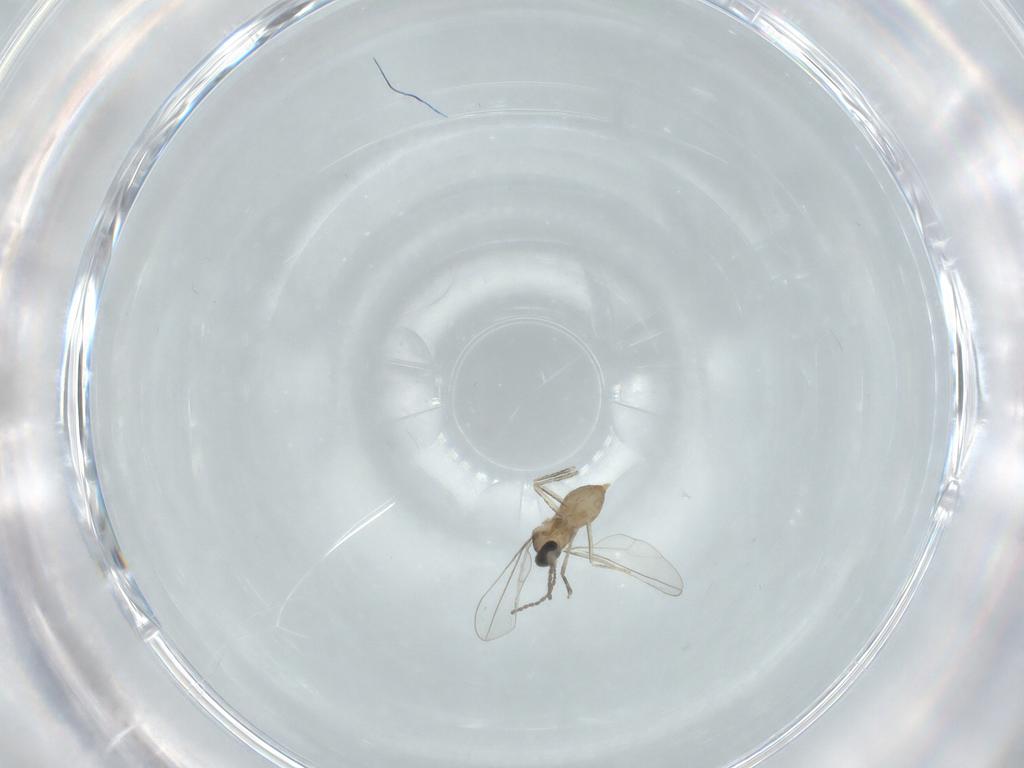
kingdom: Animalia
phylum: Arthropoda
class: Insecta
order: Diptera
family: Cecidomyiidae
